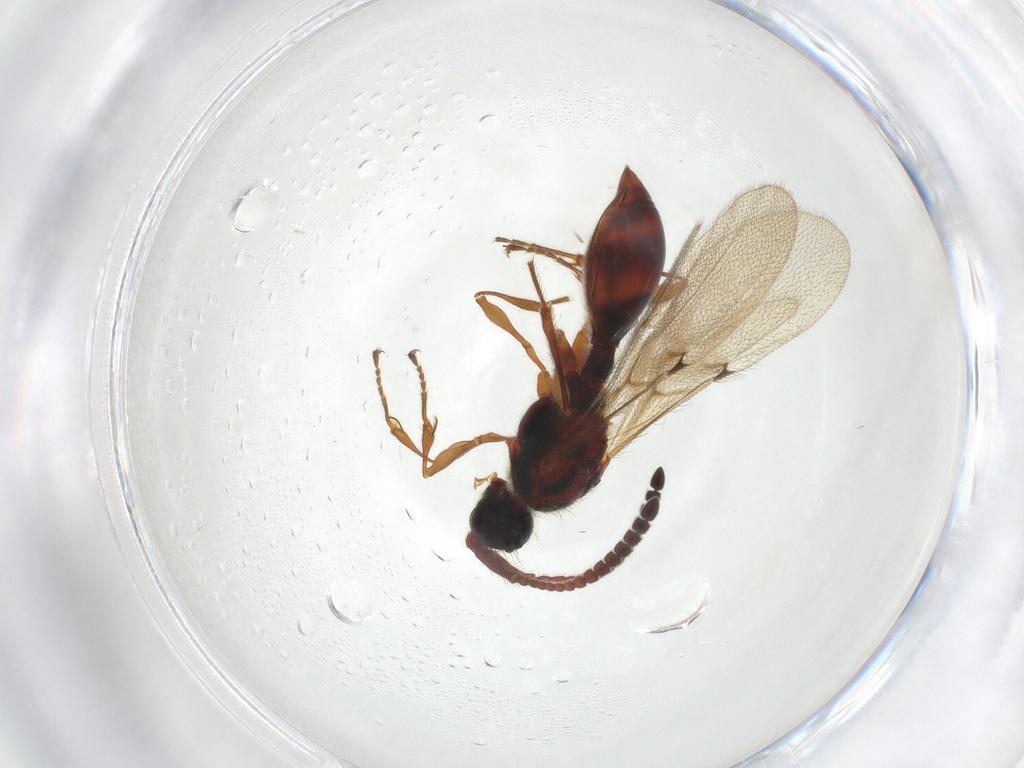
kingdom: Animalia
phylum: Arthropoda
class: Insecta
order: Hymenoptera
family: Diapriidae
